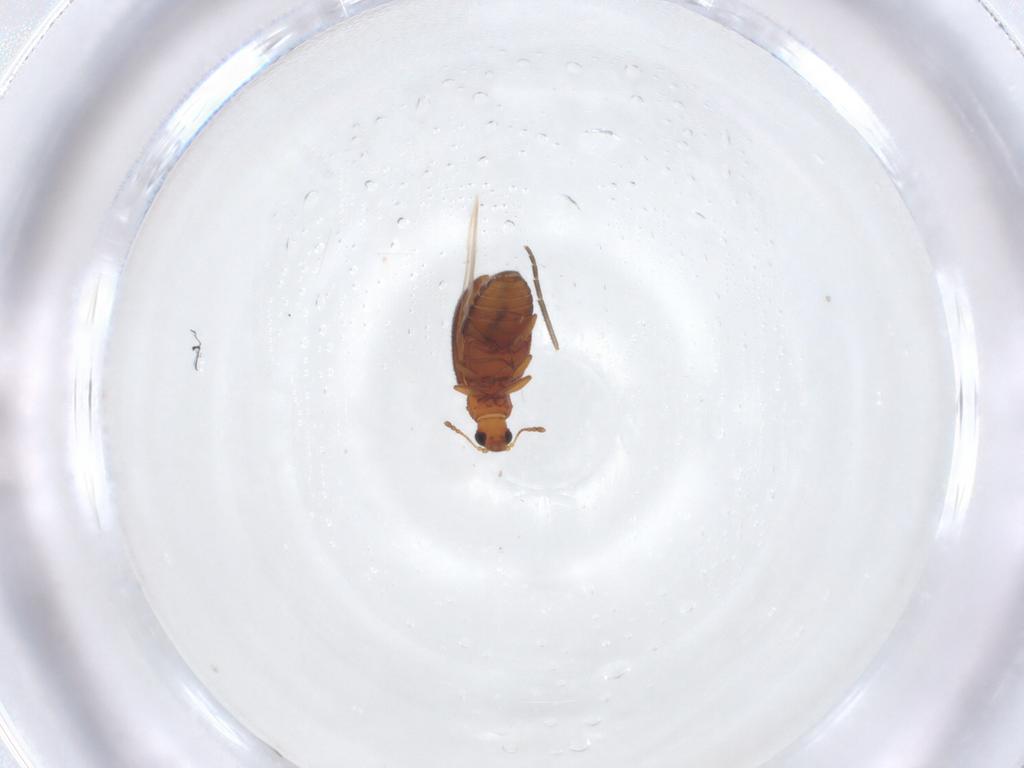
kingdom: Animalia
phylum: Arthropoda
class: Insecta
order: Coleoptera
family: Latridiidae
